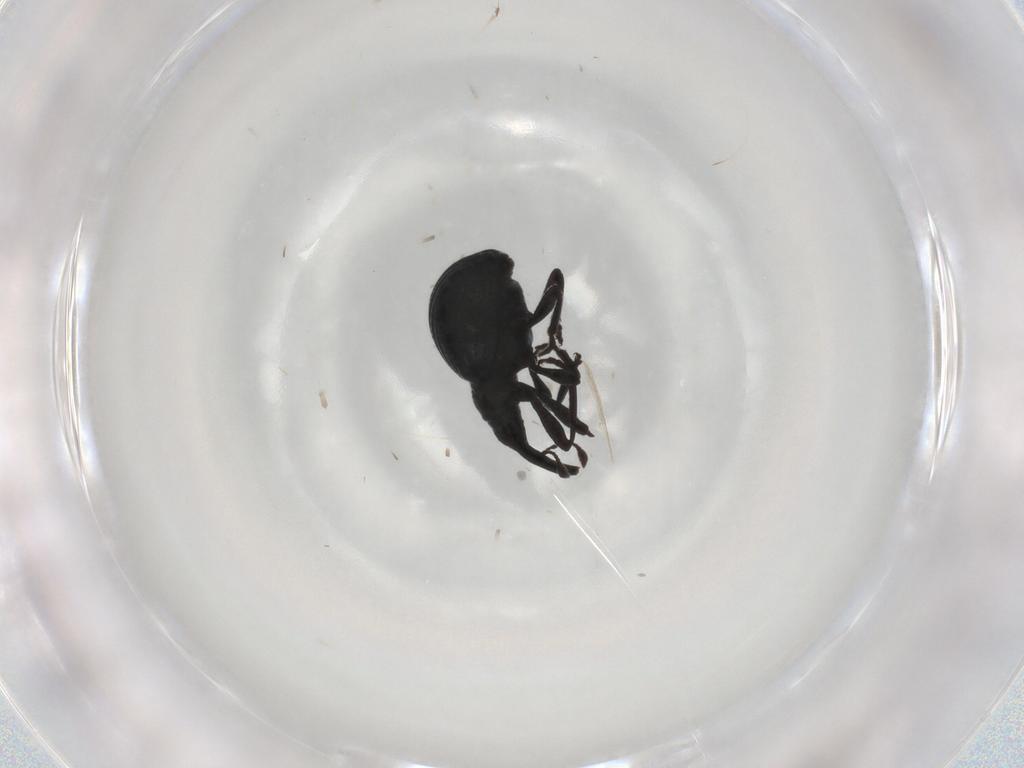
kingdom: Animalia
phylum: Arthropoda
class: Insecta
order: Coleoptera
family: Brentidae
